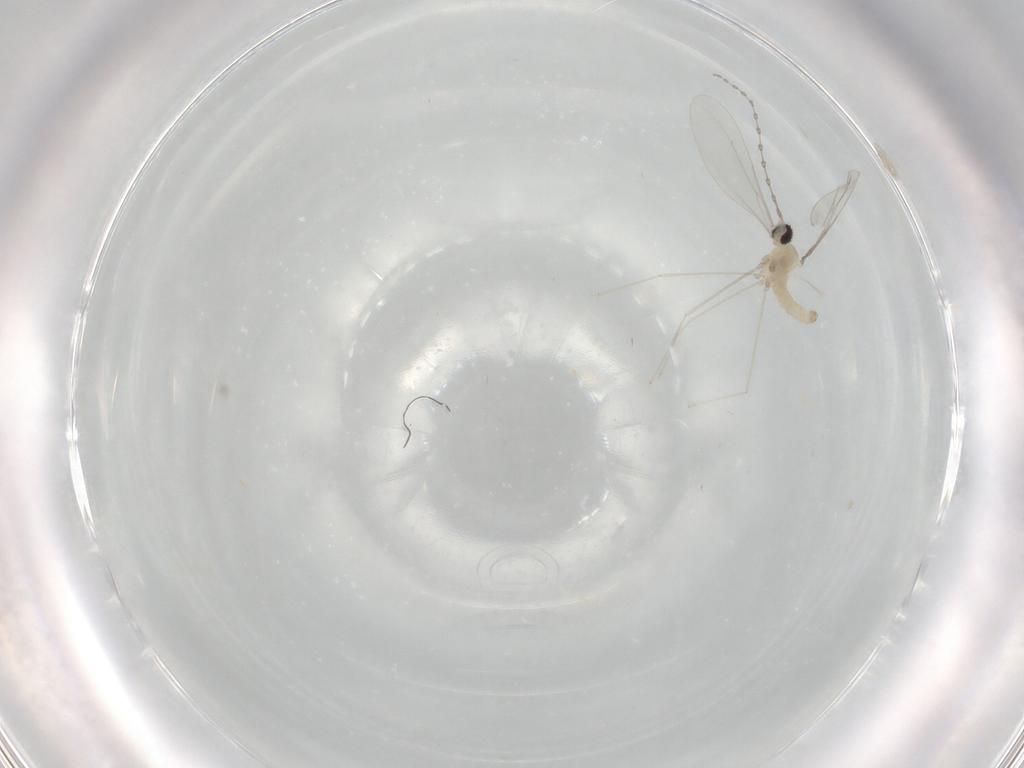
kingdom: Animalia
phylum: Arthropoda
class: Insecta
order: Diptera
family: Cecidomyiidae
